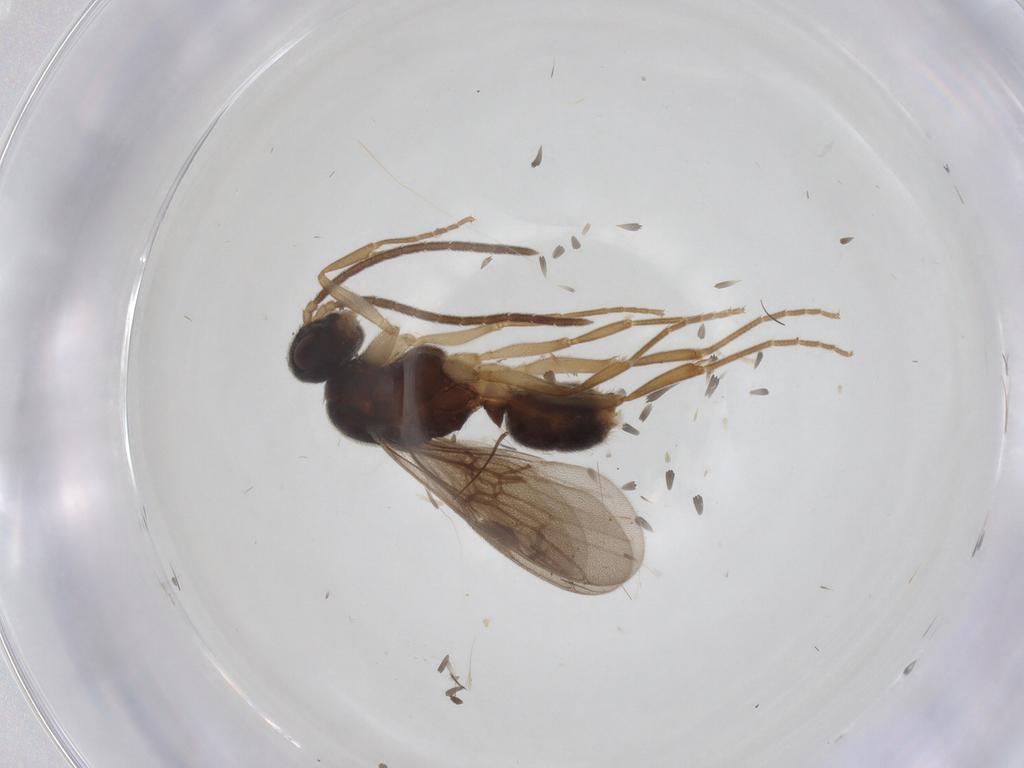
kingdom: Animalia
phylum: Arthropoda
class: Insecta
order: Hymenoptera
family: Formicidae
